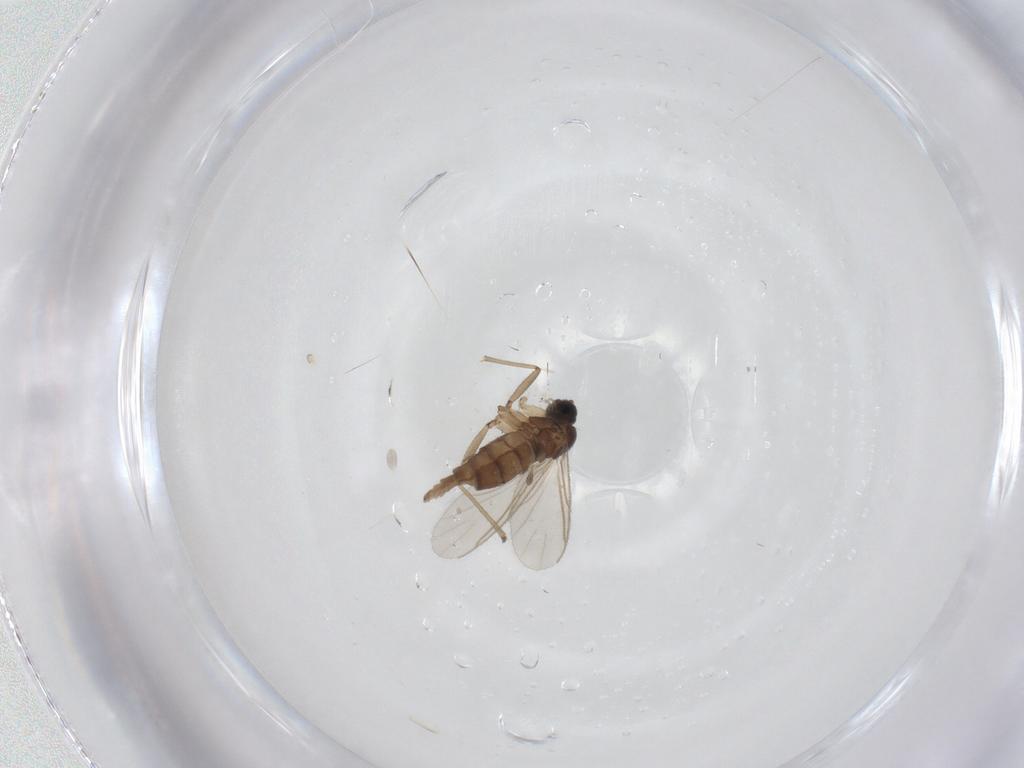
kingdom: Animalia
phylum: Arthropoda
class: Insecta
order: Diptera
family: Sciaridae
